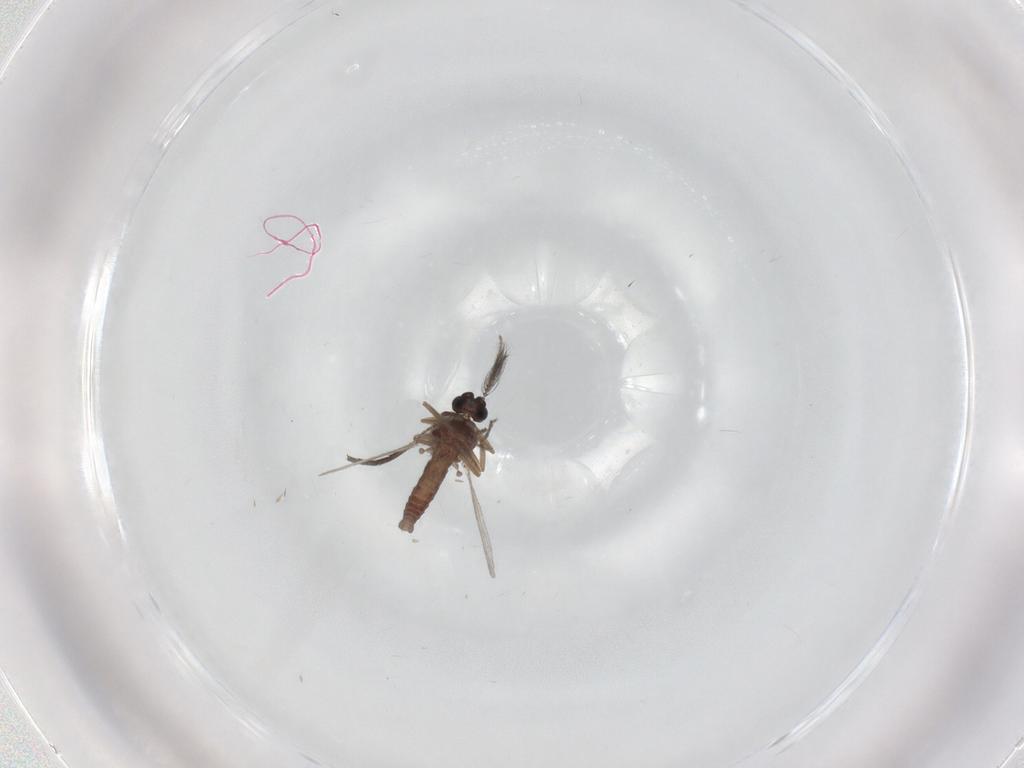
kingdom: Animalia
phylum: Arthropoda
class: Insecta
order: Diptera
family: Ceratopogonidae
